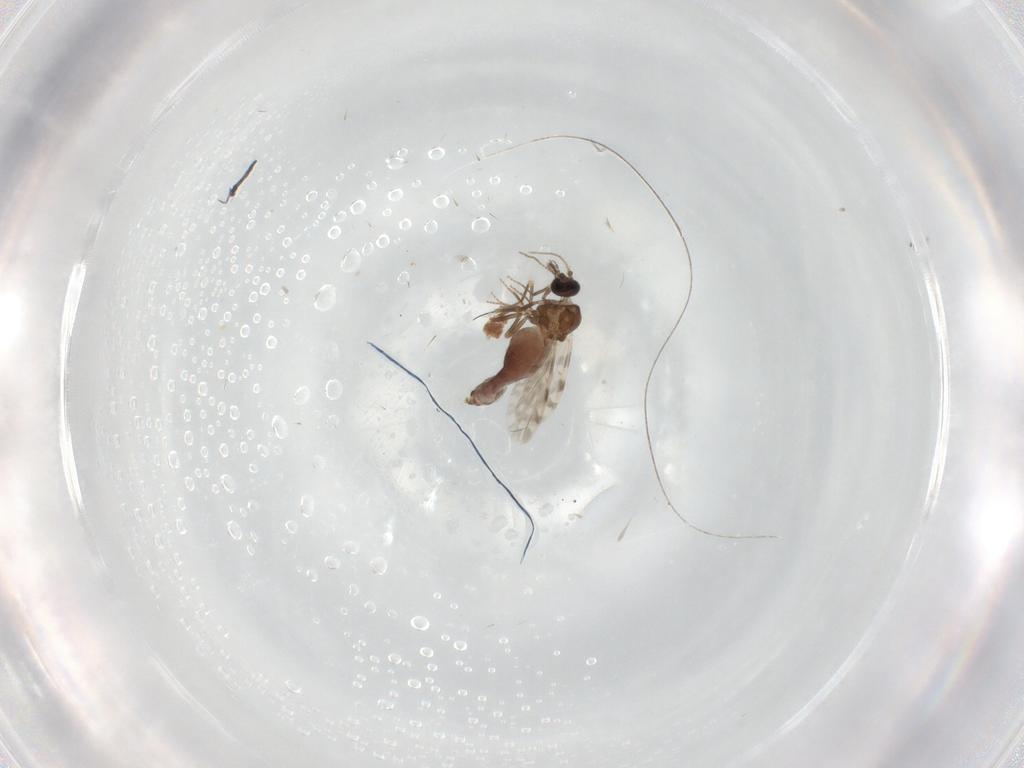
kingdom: Animalia
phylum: Arthropoda
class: Insecta
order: Diptera
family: Ceratopogonidae
